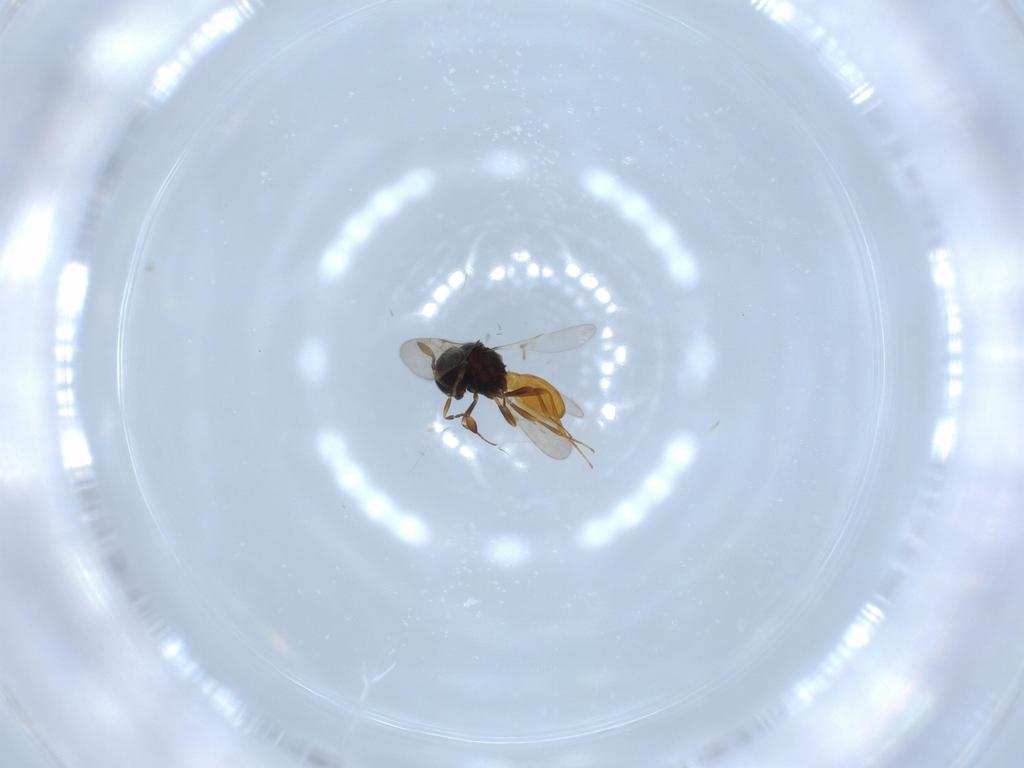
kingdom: Animalia
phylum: Arthropoda
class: Insecta
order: Hymenoptera
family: Scelionidae
